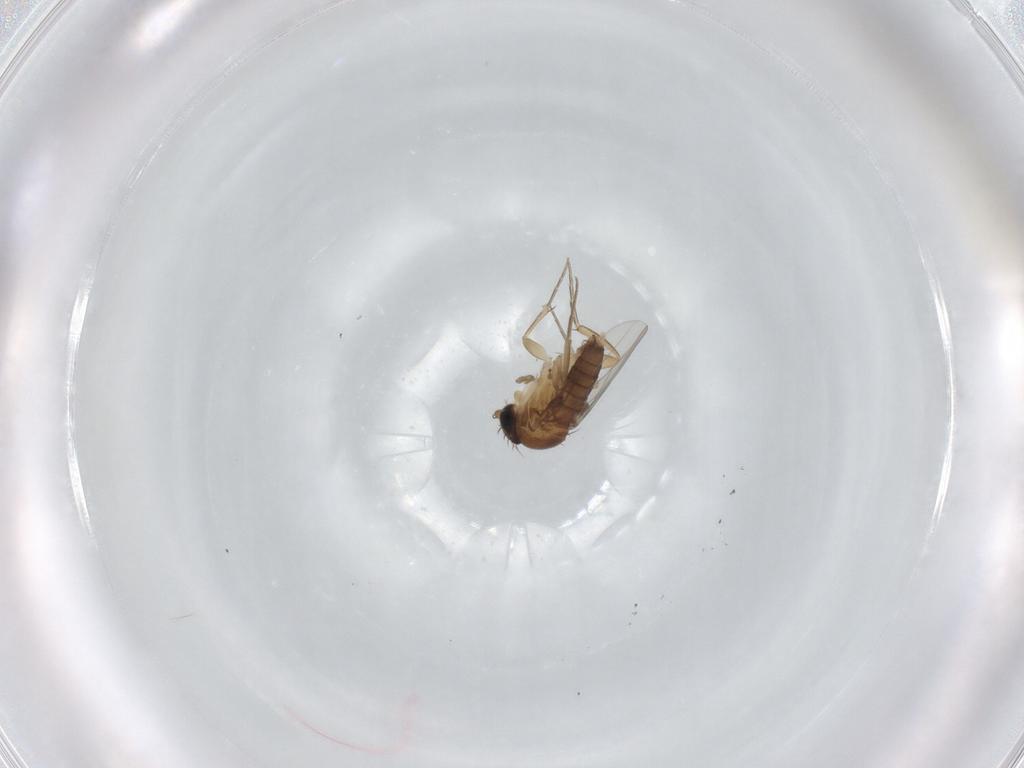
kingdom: Animalia
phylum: Arthropoda
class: Insecta
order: Diptera
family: Phoridae
